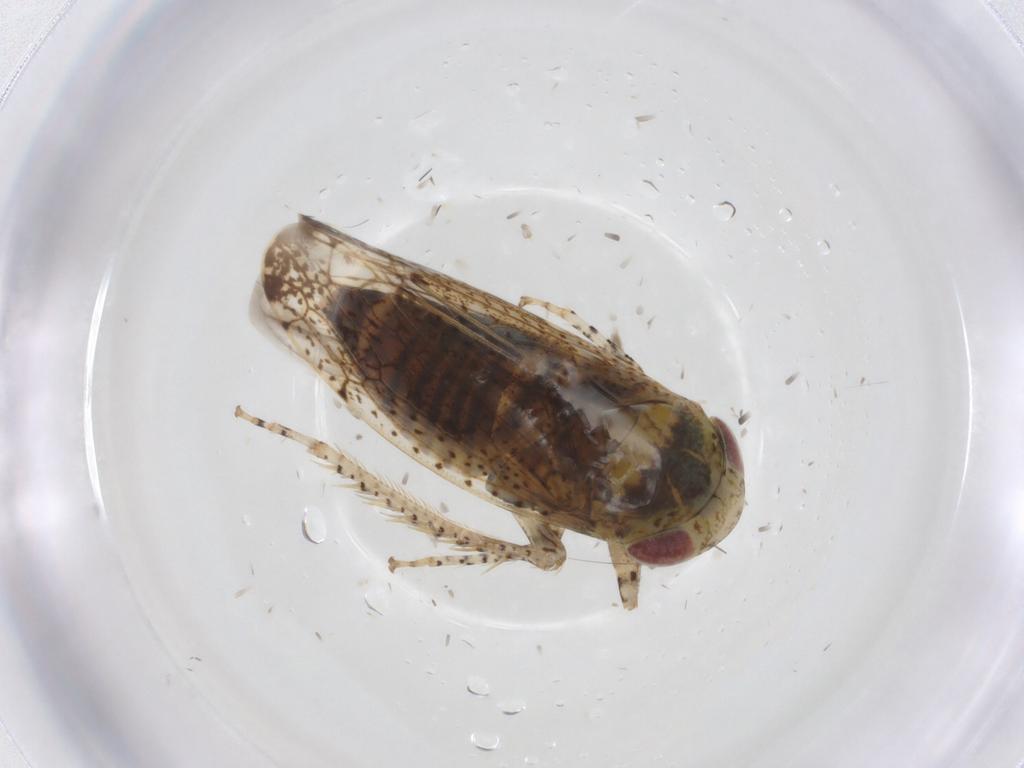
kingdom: Animalia
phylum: Arthropoda
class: Insecta
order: Hemiptera
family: Cicadellidae
